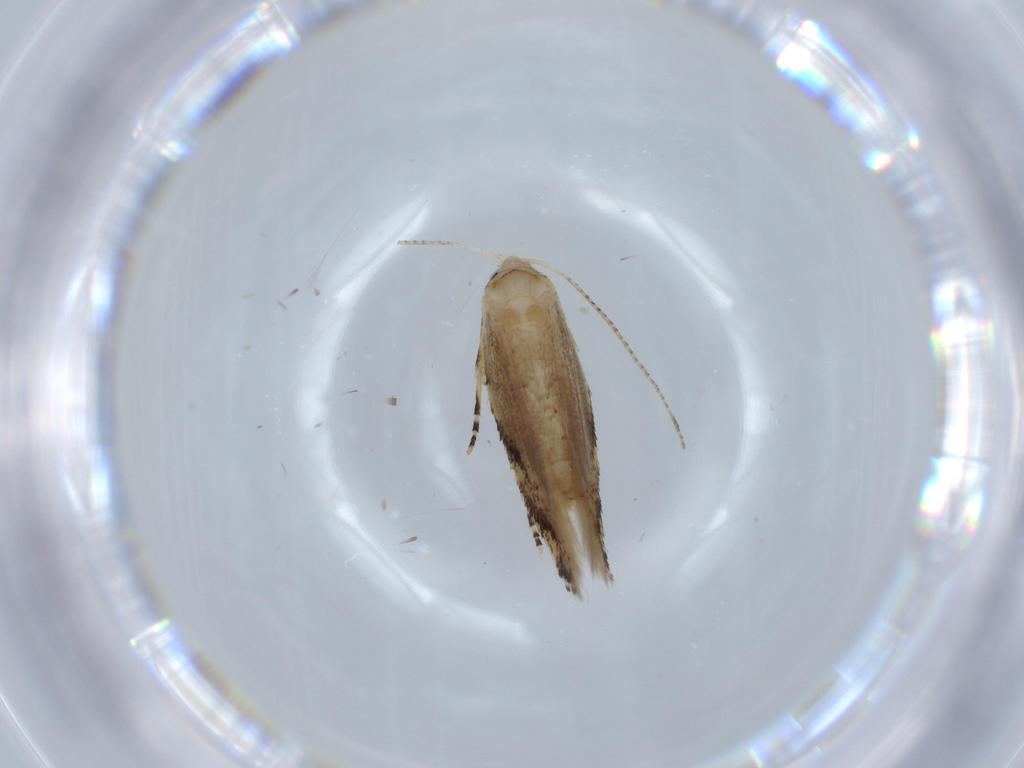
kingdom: Animalia
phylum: Arthropoda
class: Insecta
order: Lepidoptera
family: Bucculatricidae
